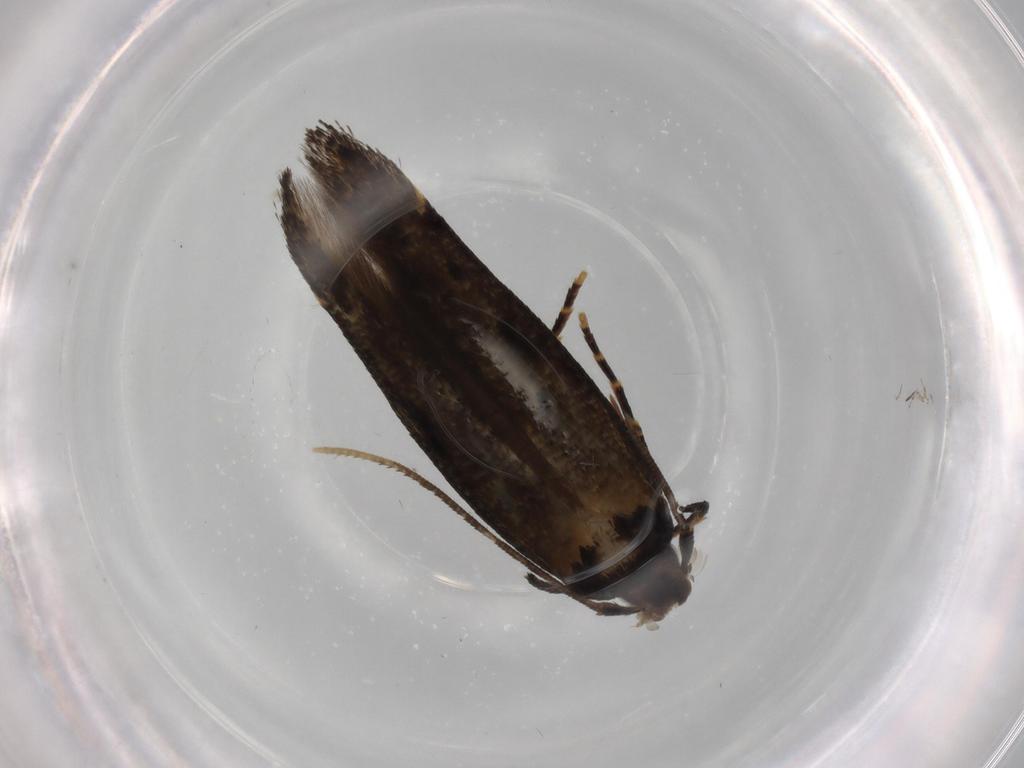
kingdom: Animalia
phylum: Arthropoda
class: Insecta
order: Lepidoptera
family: Cosmopterigidae
